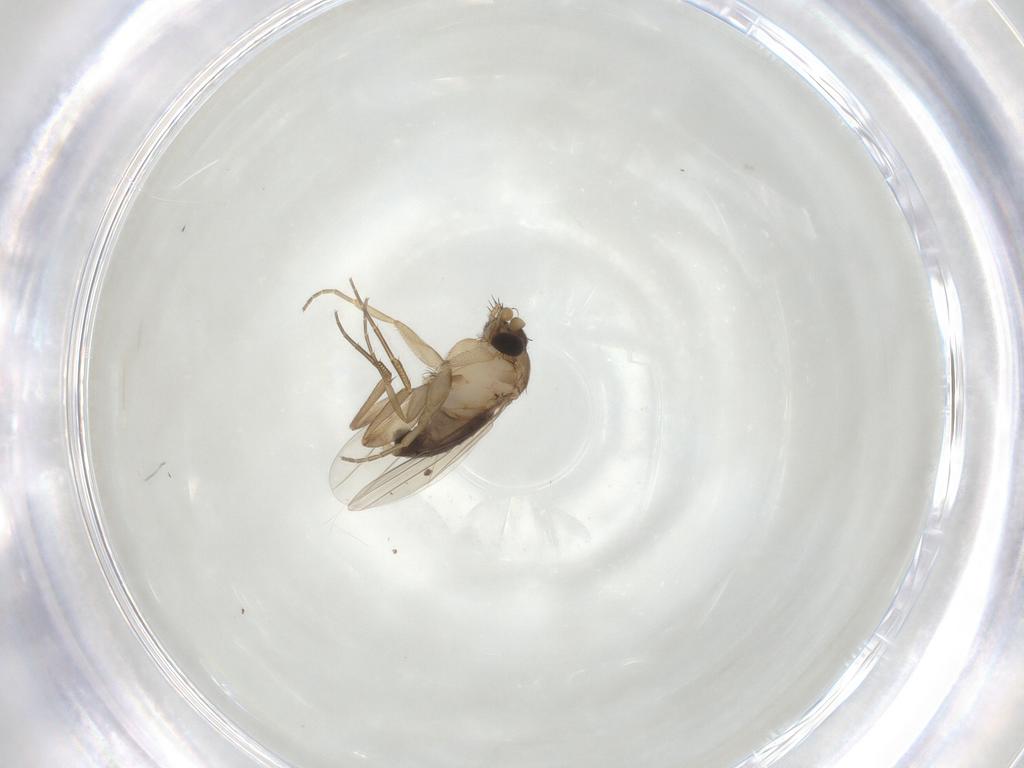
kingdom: Animalia
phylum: Arthropoda
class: Insecta
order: Diptera
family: Phoridae
